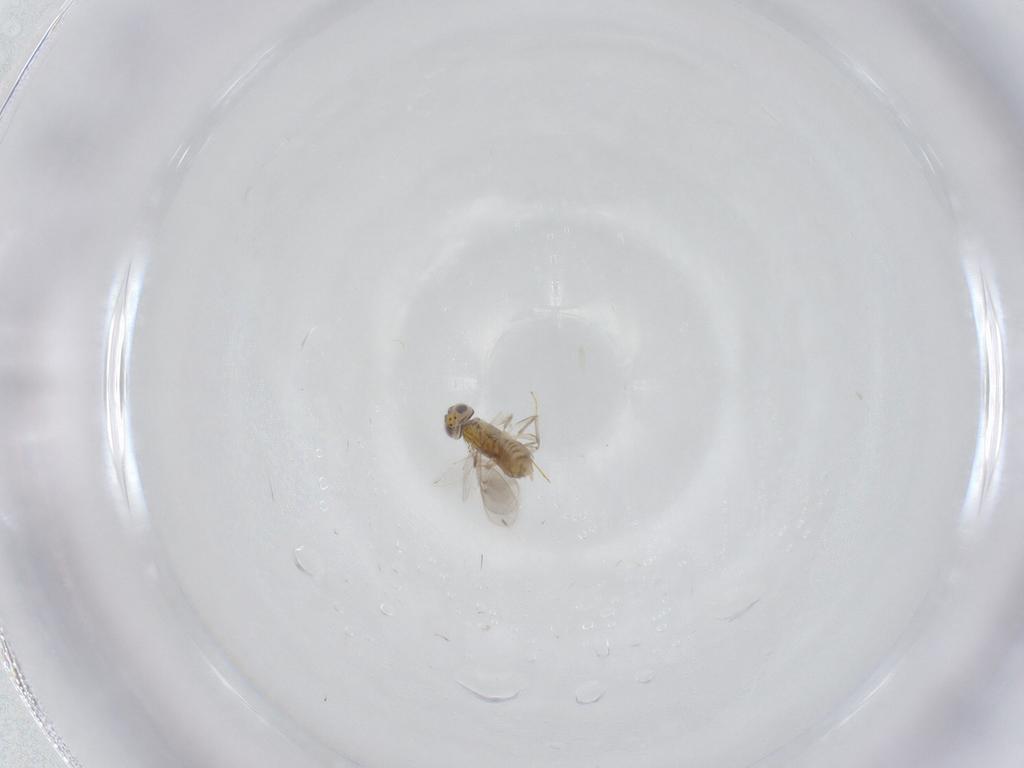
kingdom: Animalia
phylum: Arthropoda
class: Insecta
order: Hymenoptera
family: Aphelinidae
